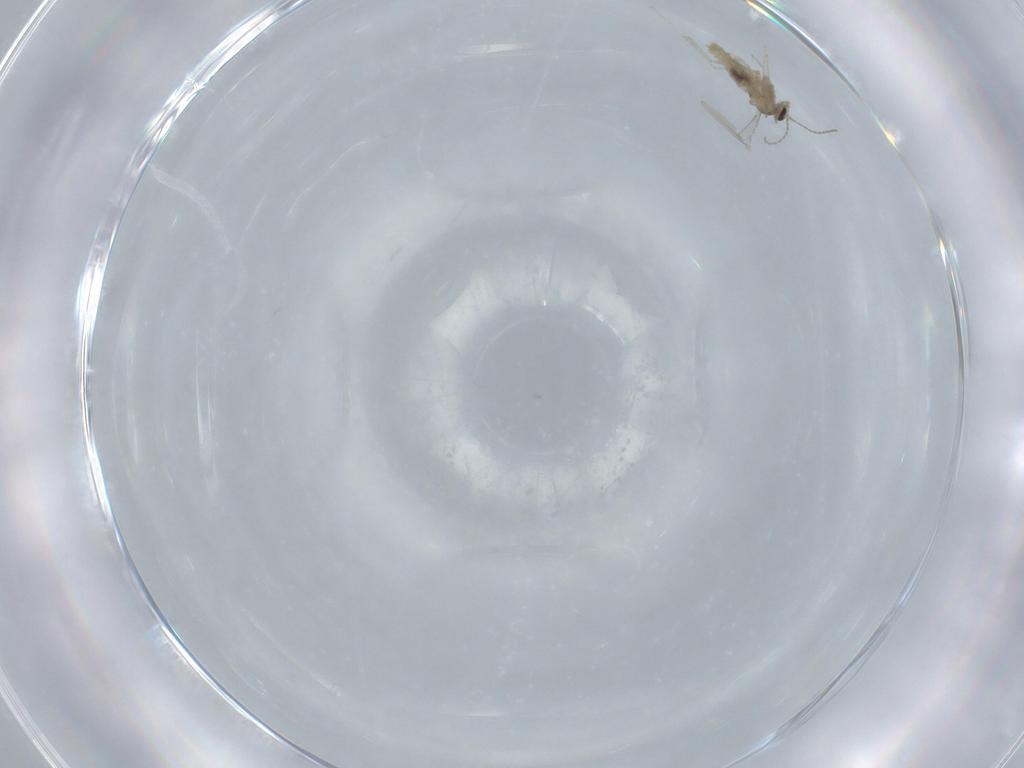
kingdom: Animalia
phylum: Arthropoda
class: Insecta
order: Diptera
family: Cecidomyiidae
